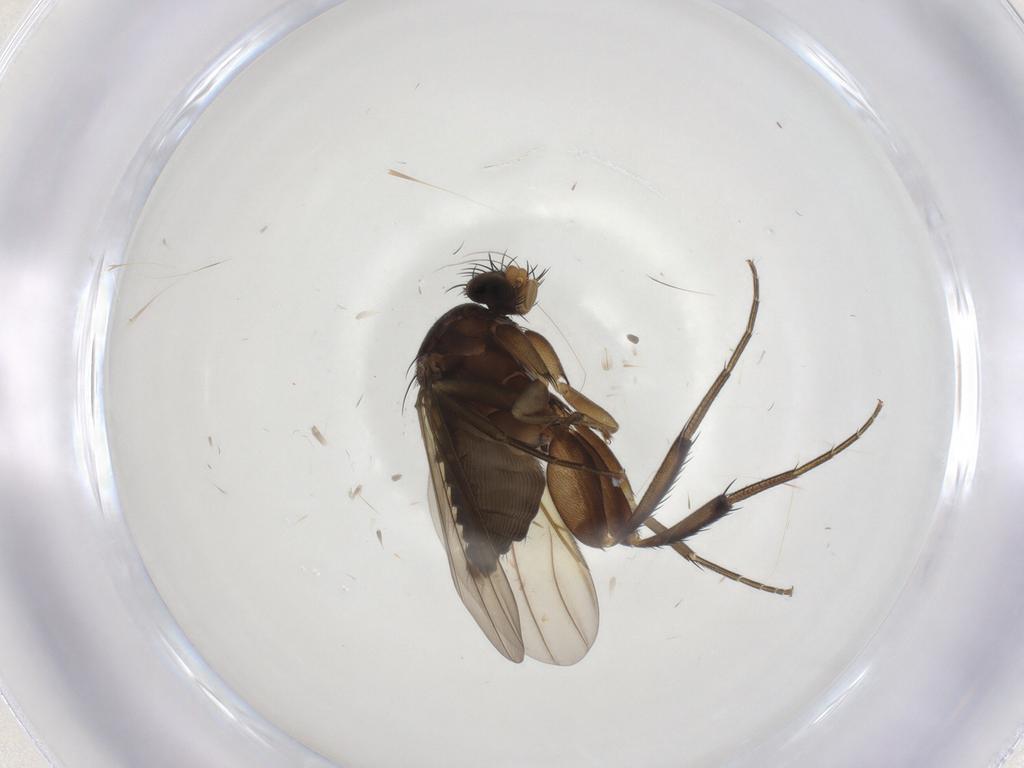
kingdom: Animalia
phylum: Arthropoda
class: Insecta
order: Diptera
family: Phoridae
